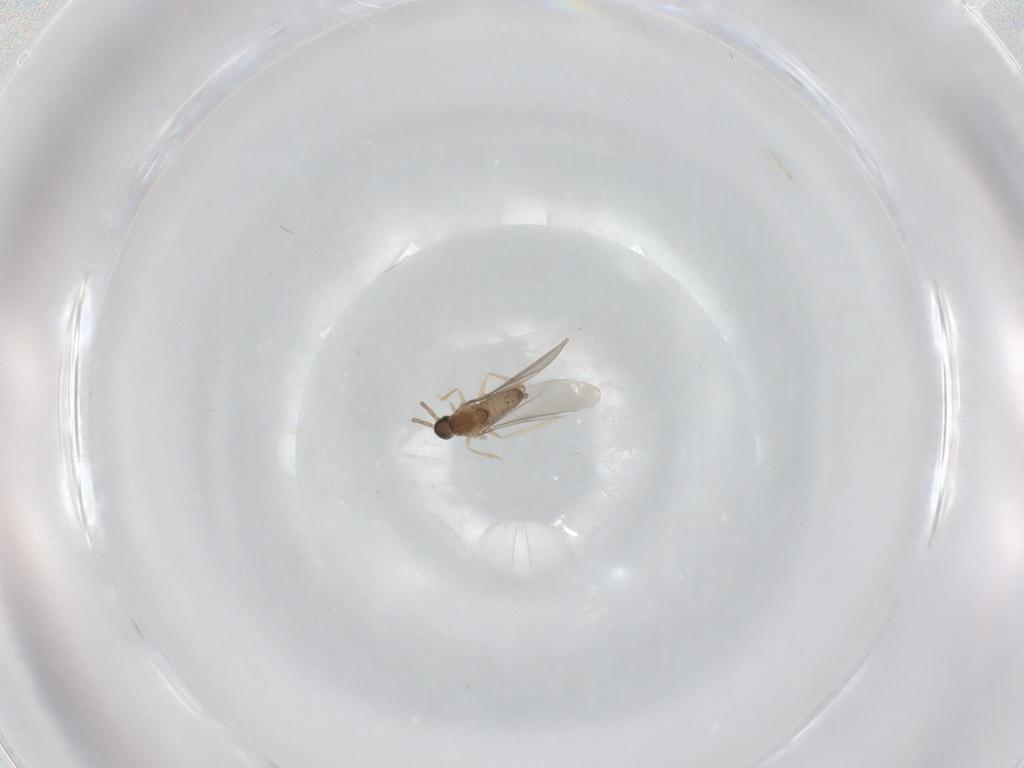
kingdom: Animalia
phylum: Arthropoda
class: Insecta
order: Diptera
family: Cecidomyiidae
